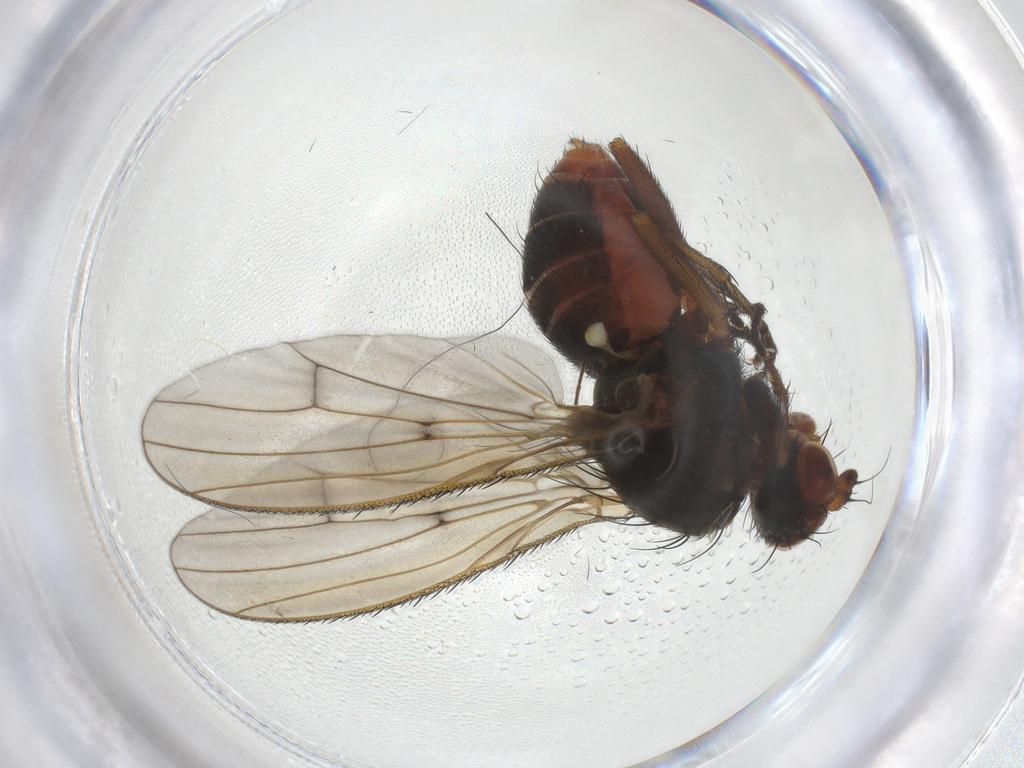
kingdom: Animalia
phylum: Arthropoda
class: Insecta
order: Diptera
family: Heleomyzidae
